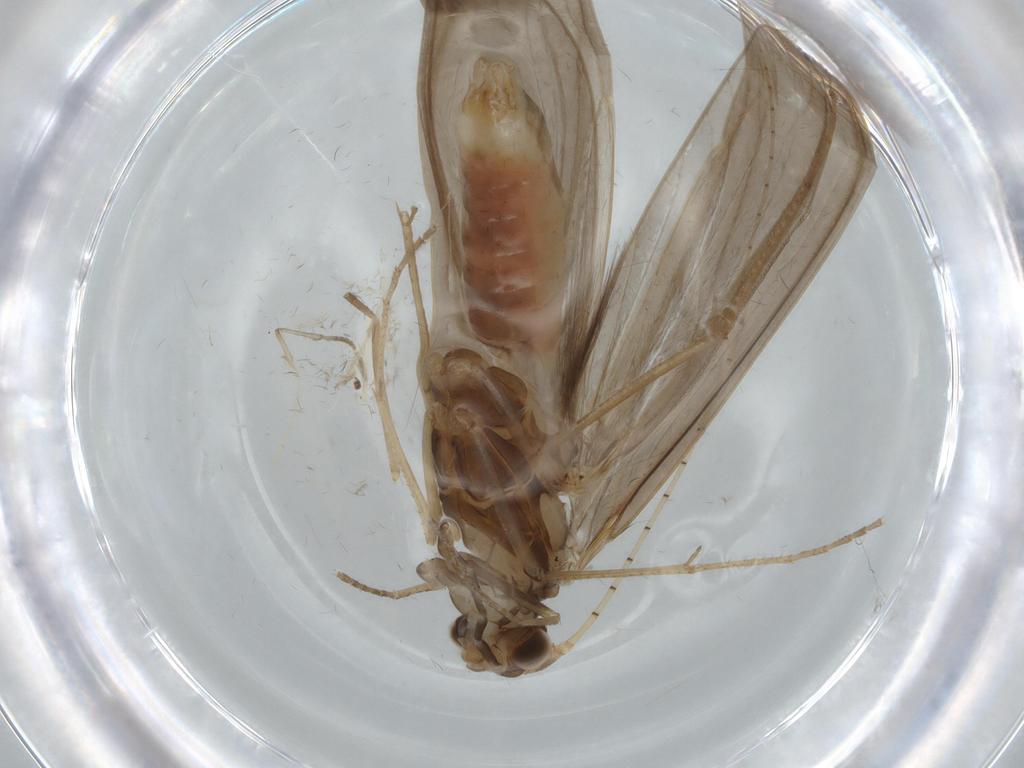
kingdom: Animalia
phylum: Arthropoda
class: Insecta
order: Trichoptera
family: Leptoceridae
